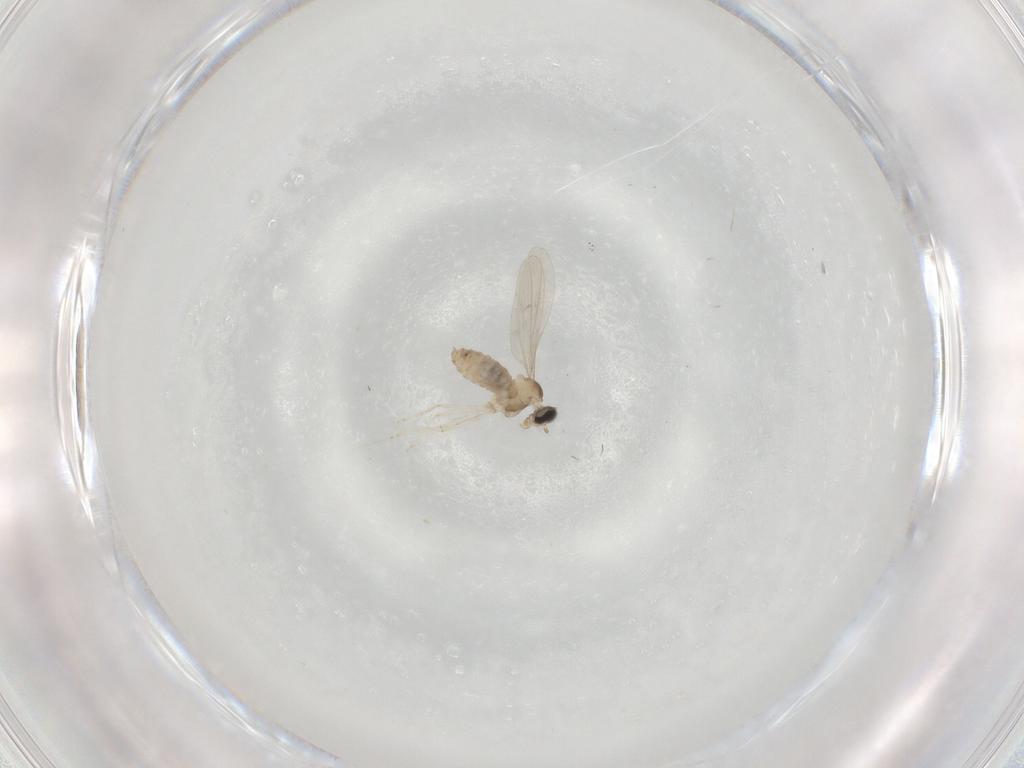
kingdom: Animalia
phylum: Arthropoda
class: Insecta
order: Diptera
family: Cecidomyiidae
